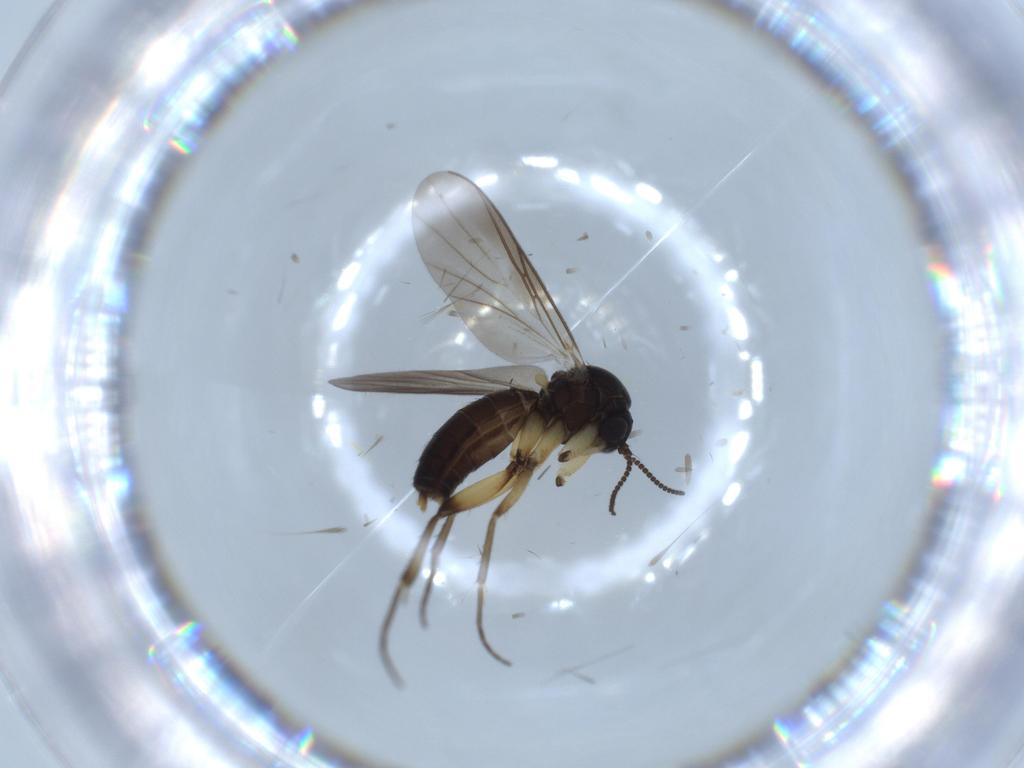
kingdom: Animalia
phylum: Arthropoda
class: Insecta
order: Diptera
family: Mycetophilidae
